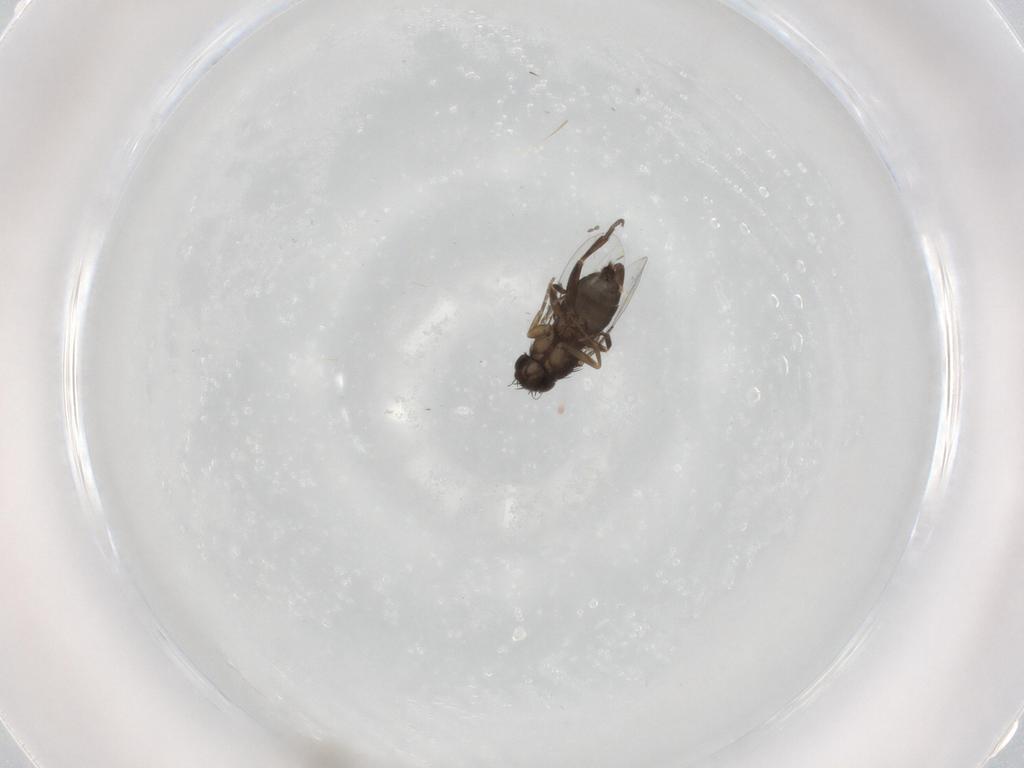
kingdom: Animalia
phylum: Arthropoda
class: Insecta
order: Diptera
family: Phoridae
